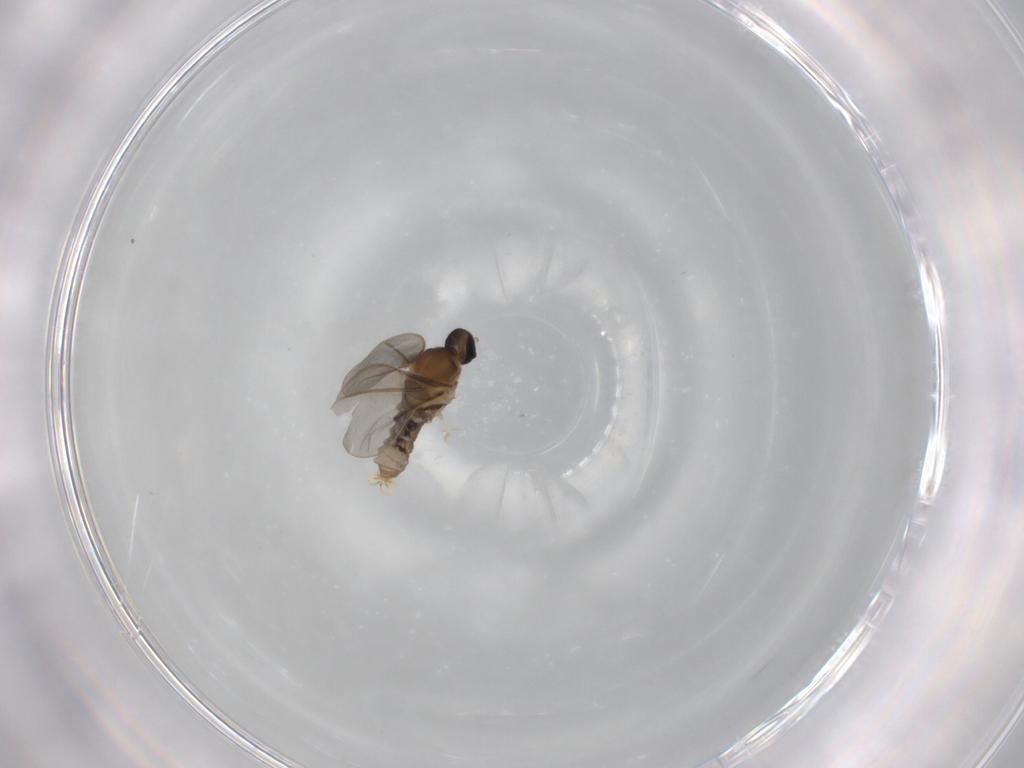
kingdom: Animalia
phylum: Arthropoda
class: Insecta
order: Diptera
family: Cecidomyiidae
